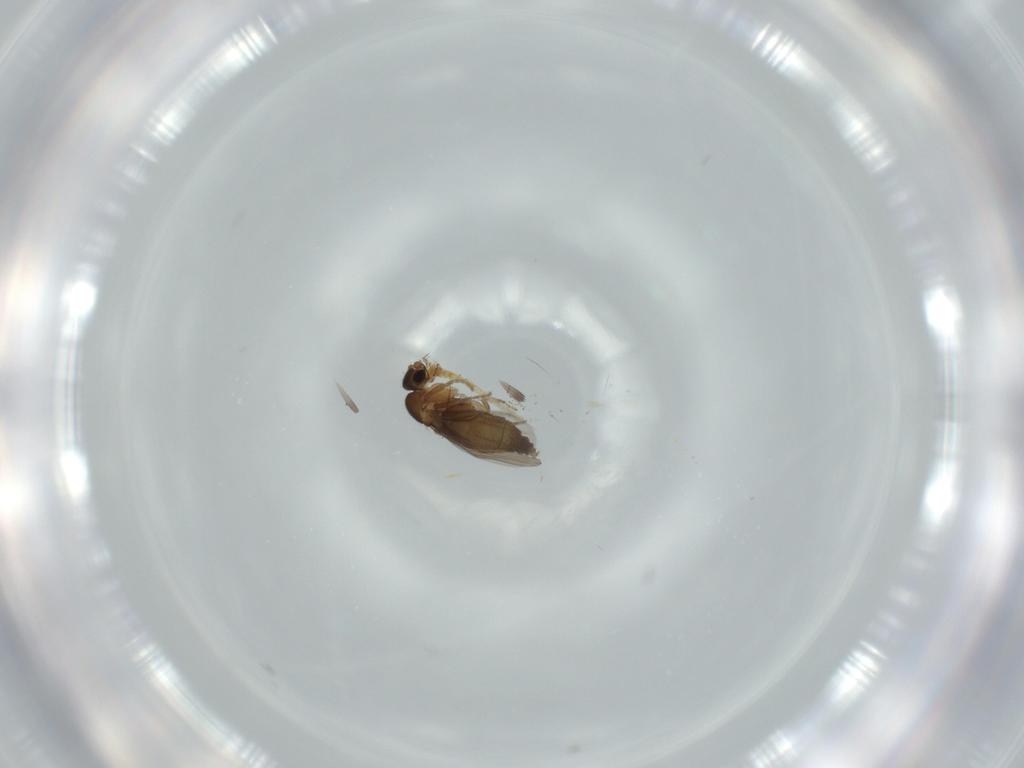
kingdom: Animalia
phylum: Arthropoda
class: Insecta
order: Diptera
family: Stratiomyidae
